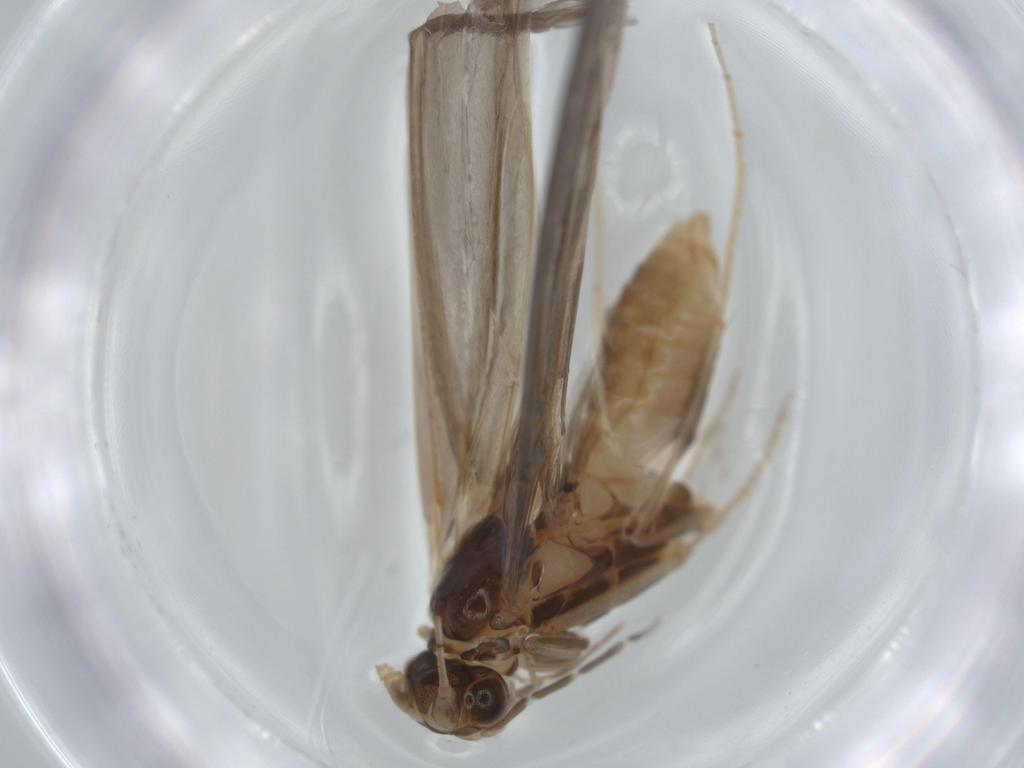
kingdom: Animalia
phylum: Arthropoda
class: Insecta
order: Trichoptera
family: Leptoceridae
